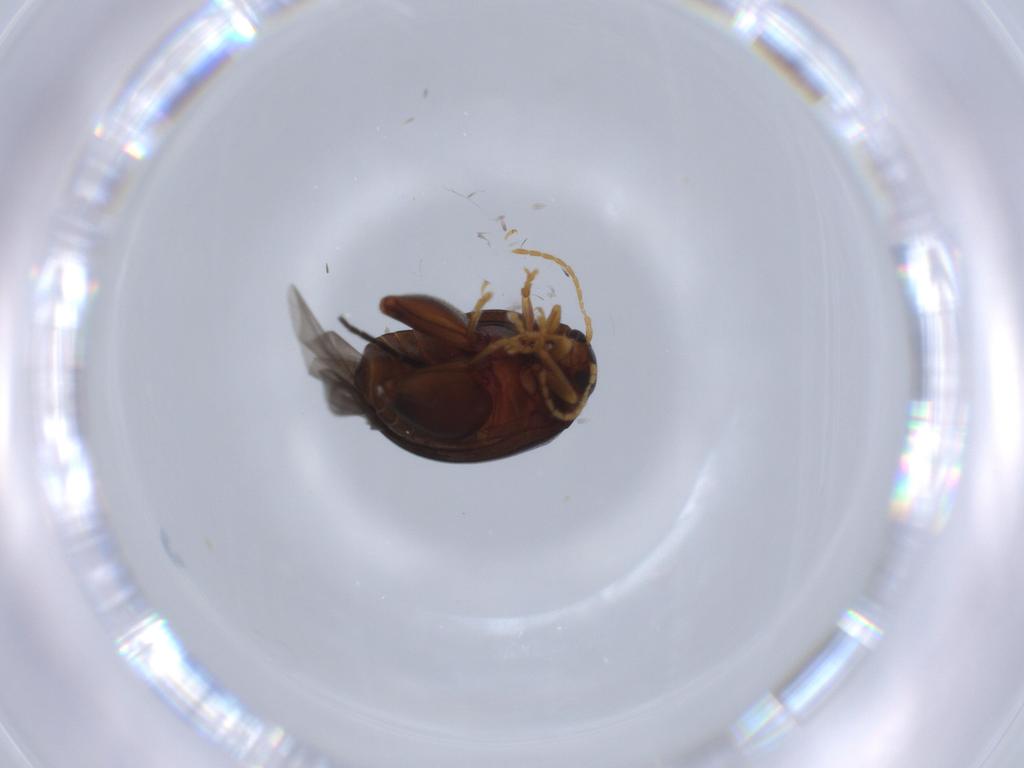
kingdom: Animalia
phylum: Arthropoda
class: Insecta
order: Coleoptera
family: Chrysomelidae
